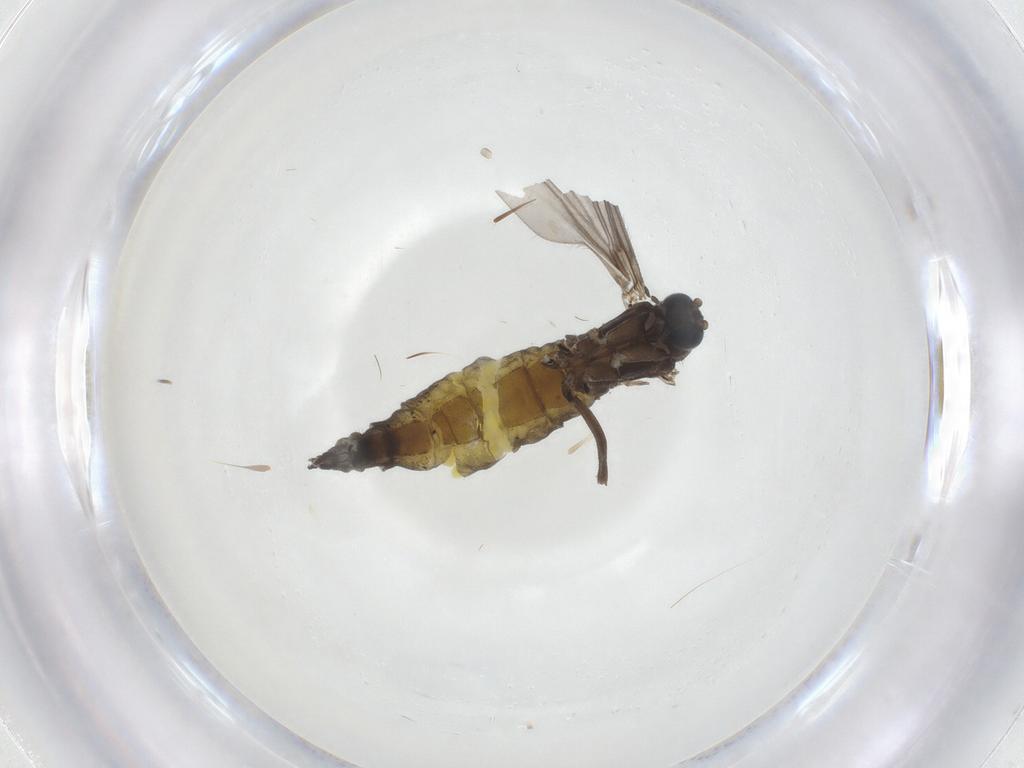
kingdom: Animalia
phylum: Arthropoda
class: Insecta
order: Diptera
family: Sciaridae
